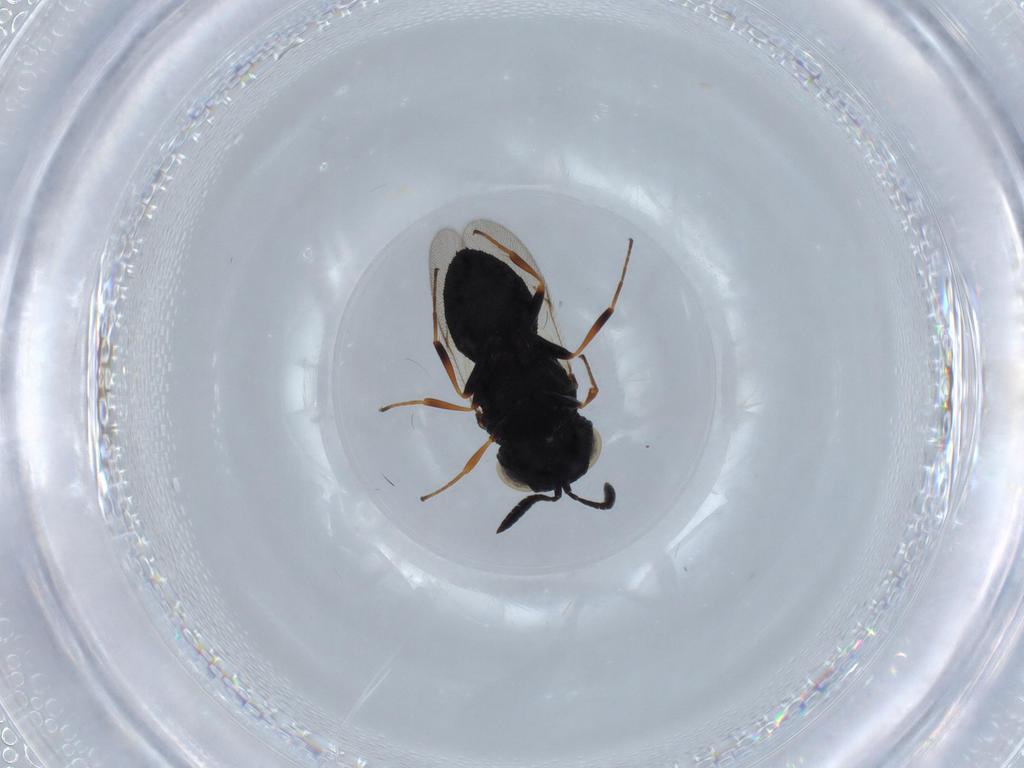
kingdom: Animalia
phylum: Arthropoda
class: Insecta
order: Hymenoptera
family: Scelionidae
